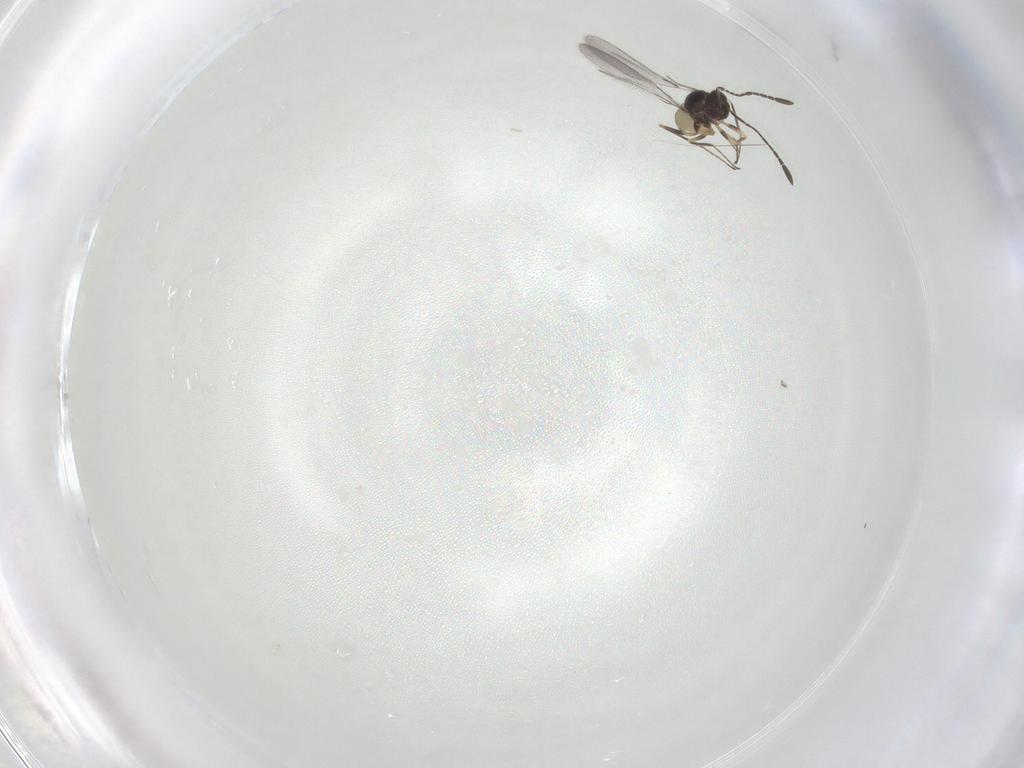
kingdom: Animalia
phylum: Arthropoda
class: Insecta
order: Hymenoptera
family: Mymaridae
